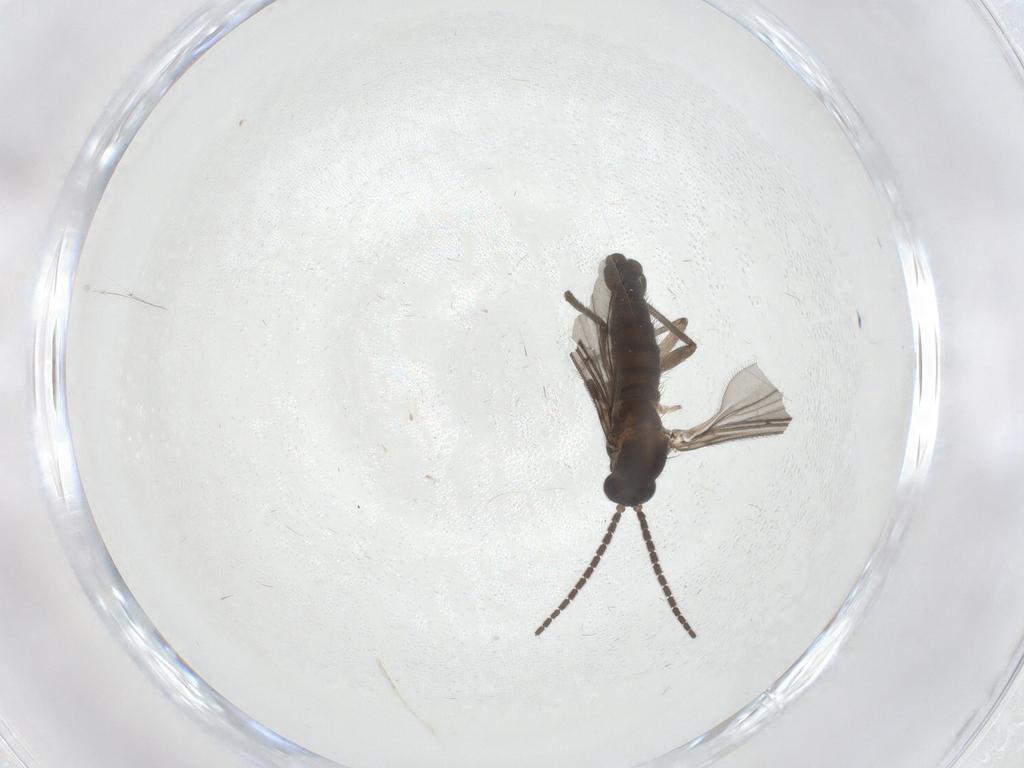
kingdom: Animalia
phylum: Arthropoda
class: Insecta
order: Diptera
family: Sciaridae
